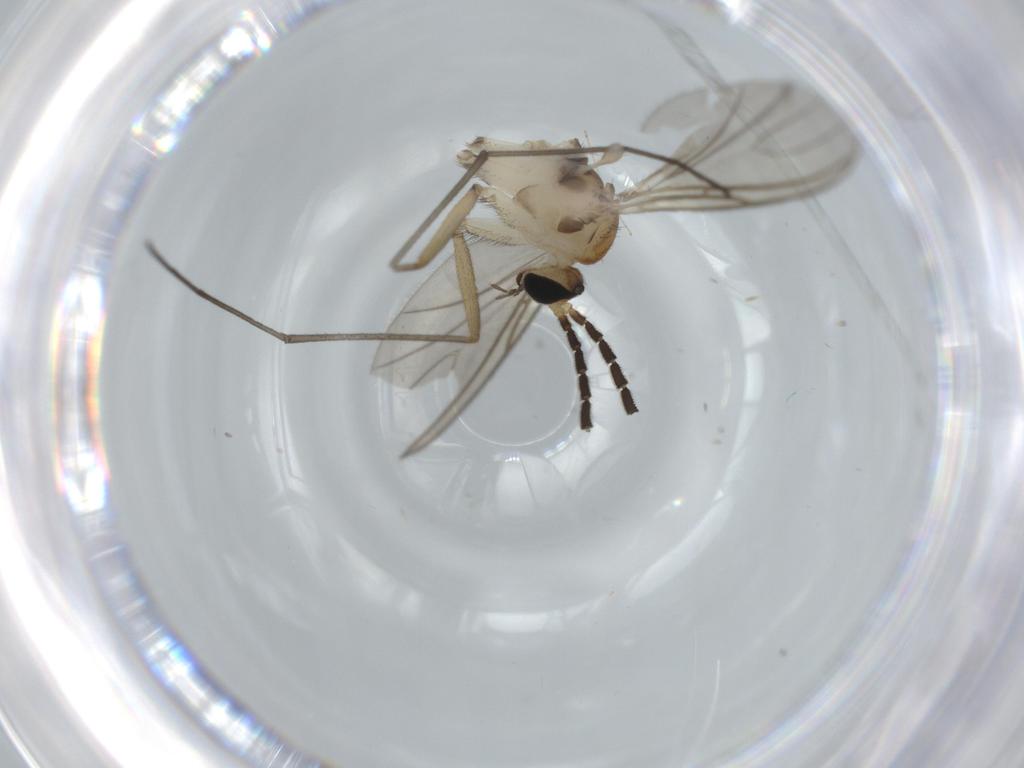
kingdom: Animalia
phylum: Arthropoda
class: Insecta
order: Diptera
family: Sciaridae
